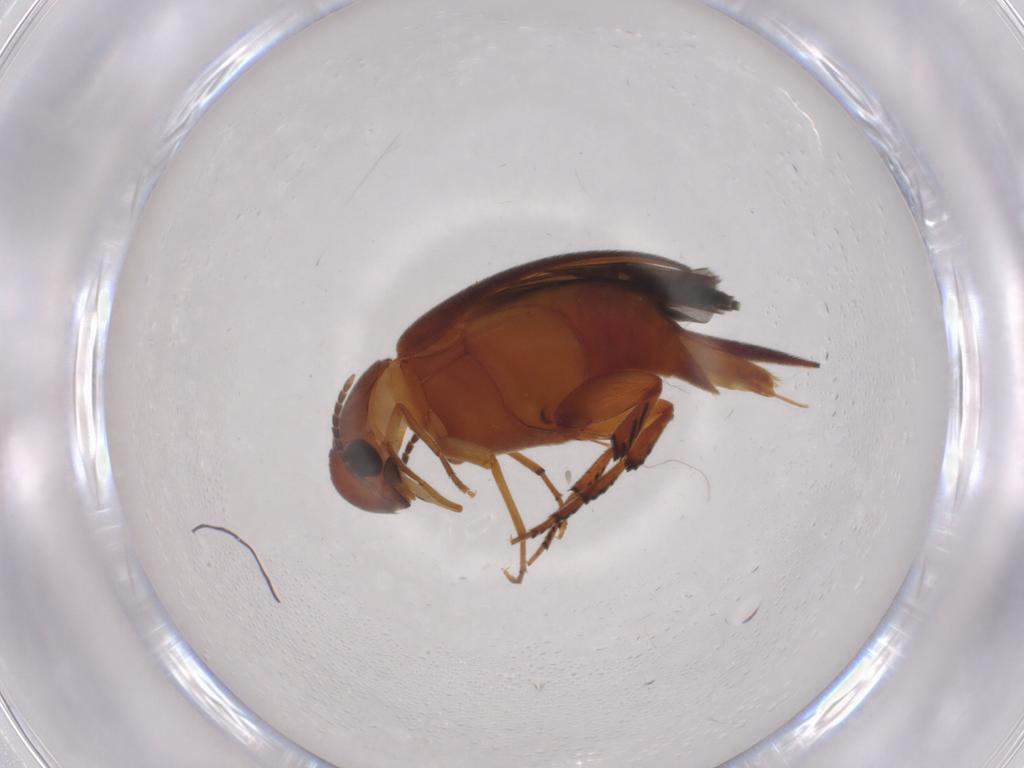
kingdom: Animalia
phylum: Arthropoda
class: Insecta
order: Coleoptera
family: Mordellidae
